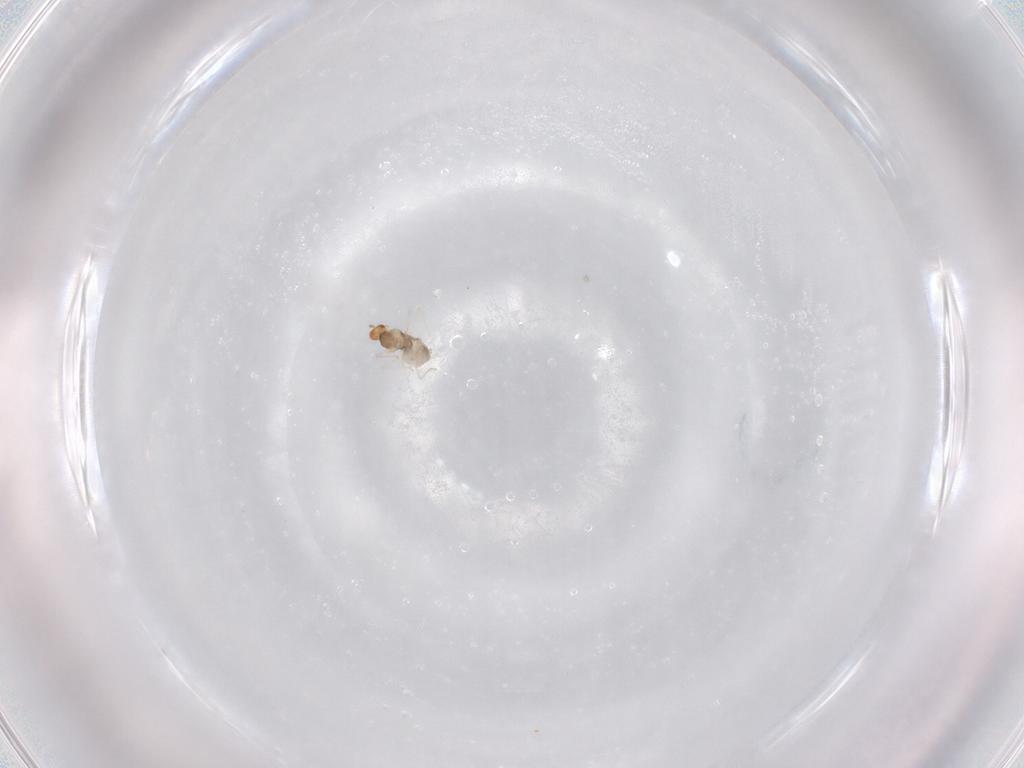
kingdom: Animalia
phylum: Arthropoda
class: Insecta
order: Diptera
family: Cecidomyiidae
